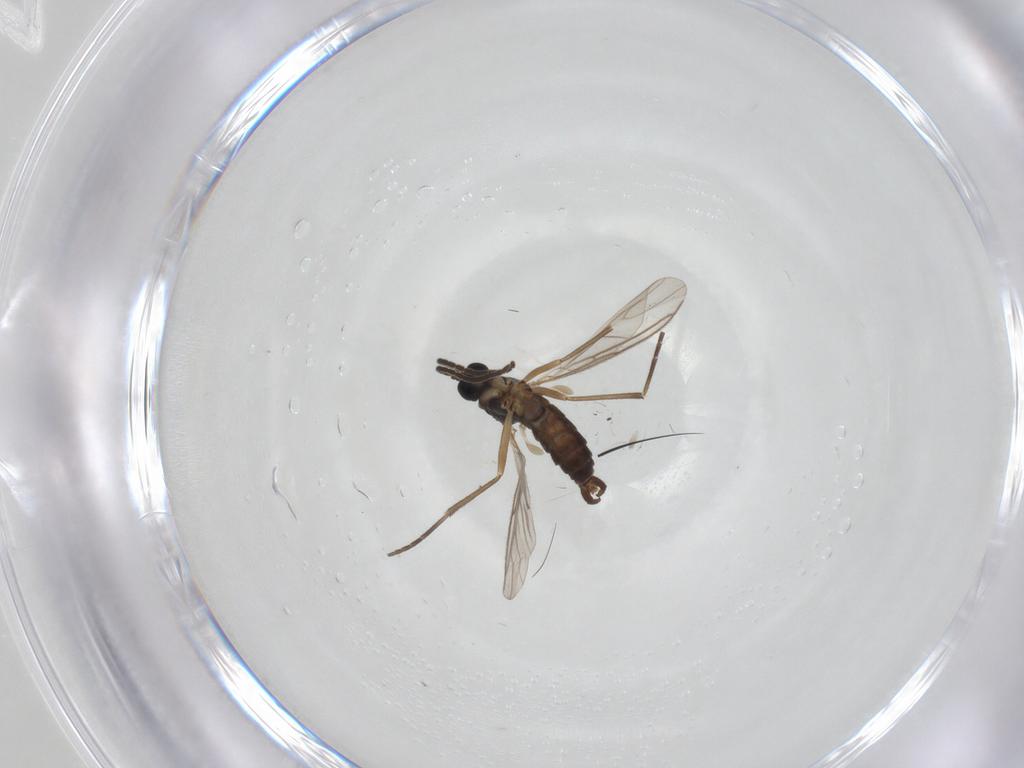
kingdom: Animalia
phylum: Arthropoda
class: Insecta
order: Diptera
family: Sciaridae
